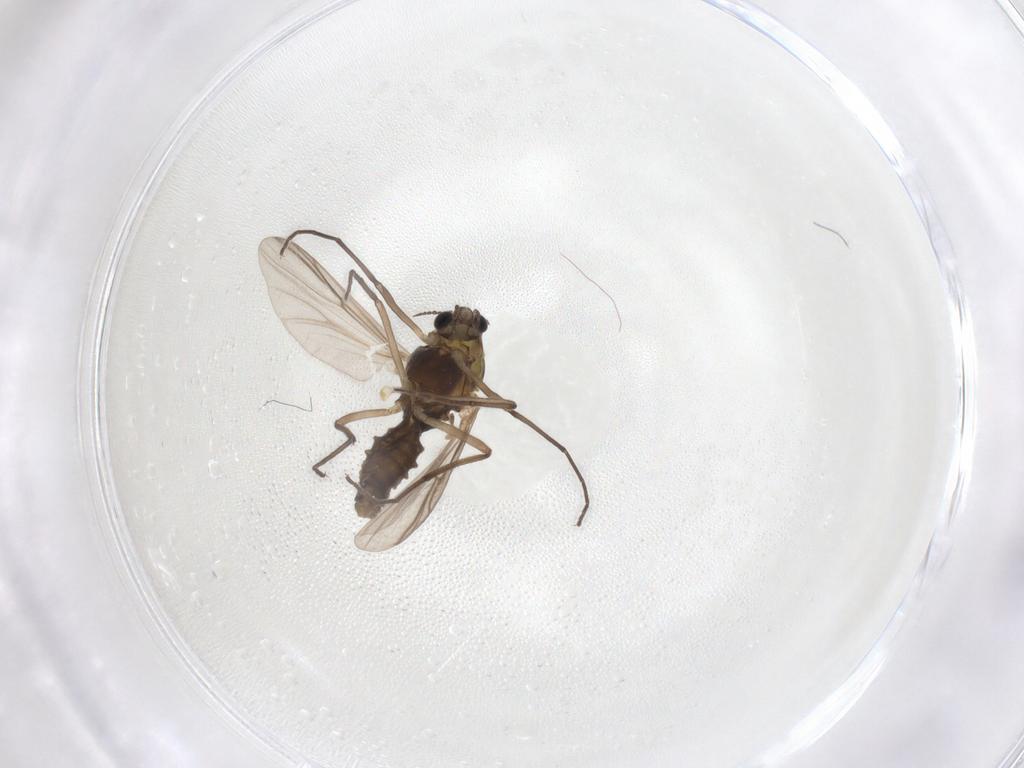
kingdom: Animalia
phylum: Arthropoda
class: Insecta
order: Diptera
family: Chironomidae
